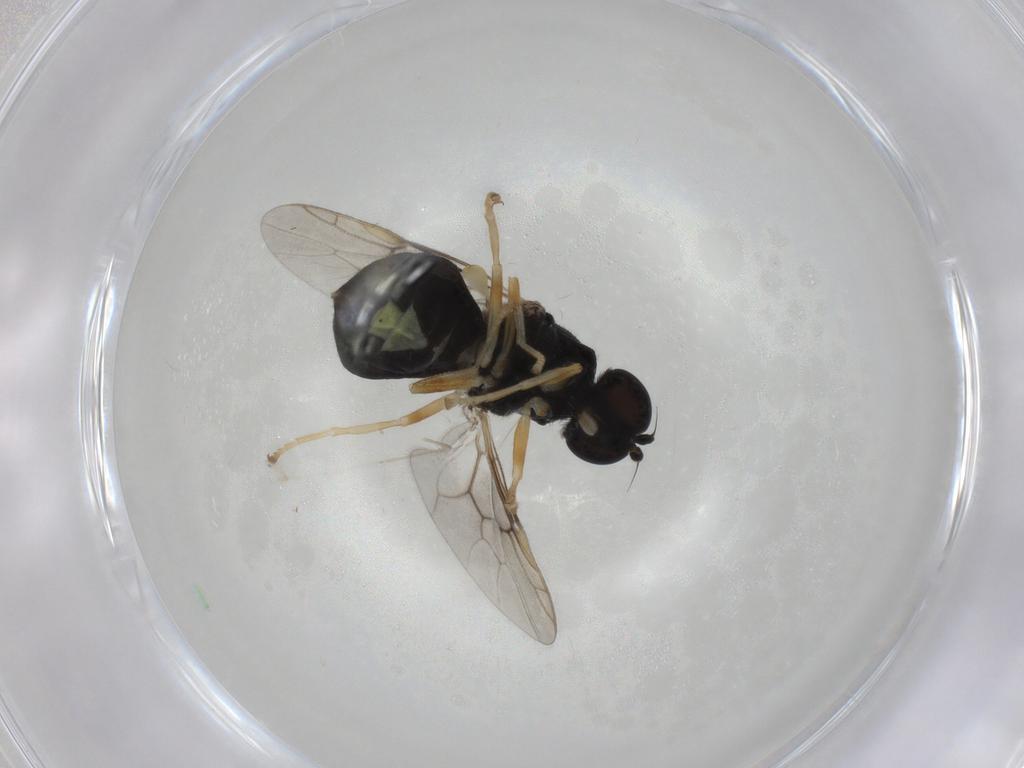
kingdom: Animalia
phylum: Arthropoda
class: Insecta
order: Diptera
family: Stratiomyidae
